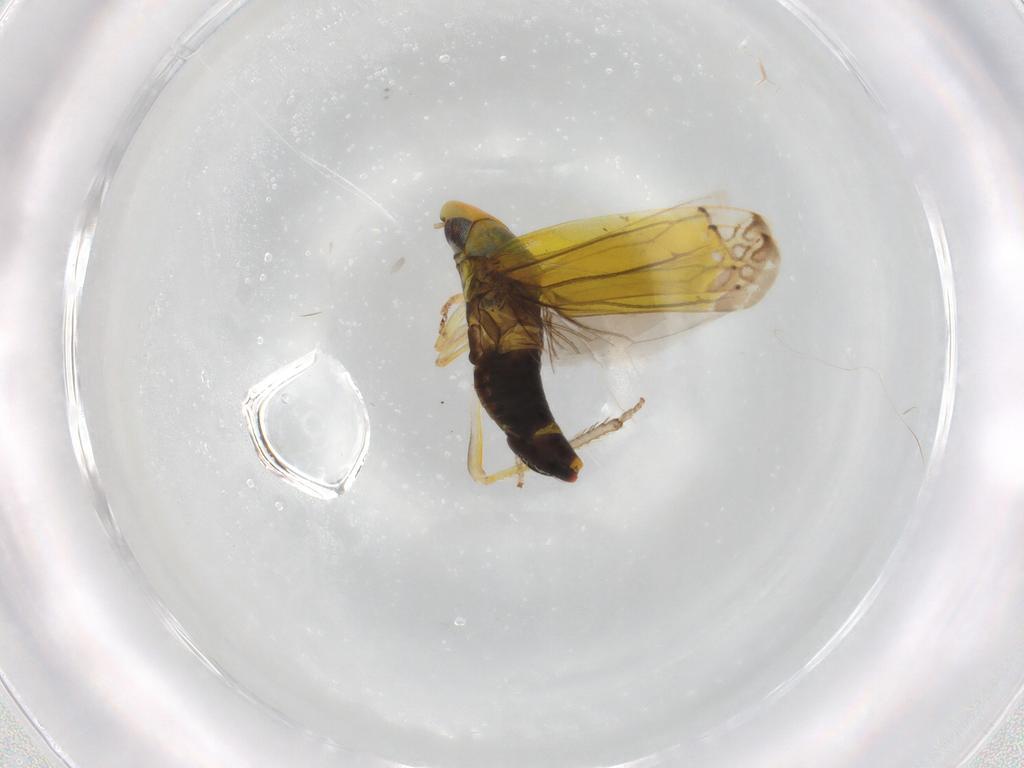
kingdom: Animalia
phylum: Arthropoda
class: Insecta
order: Hemiptera
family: Cicadellidae
